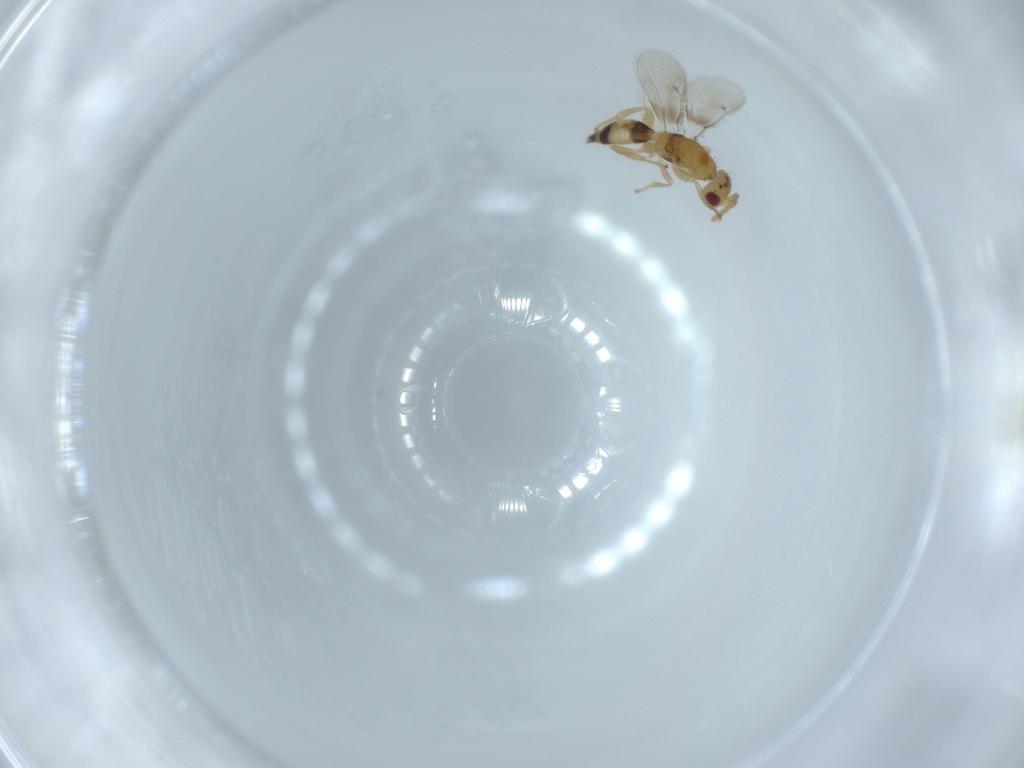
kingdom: Animalia
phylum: Arthropoda
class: Insecta
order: Hymenoptera
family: Torymidae
